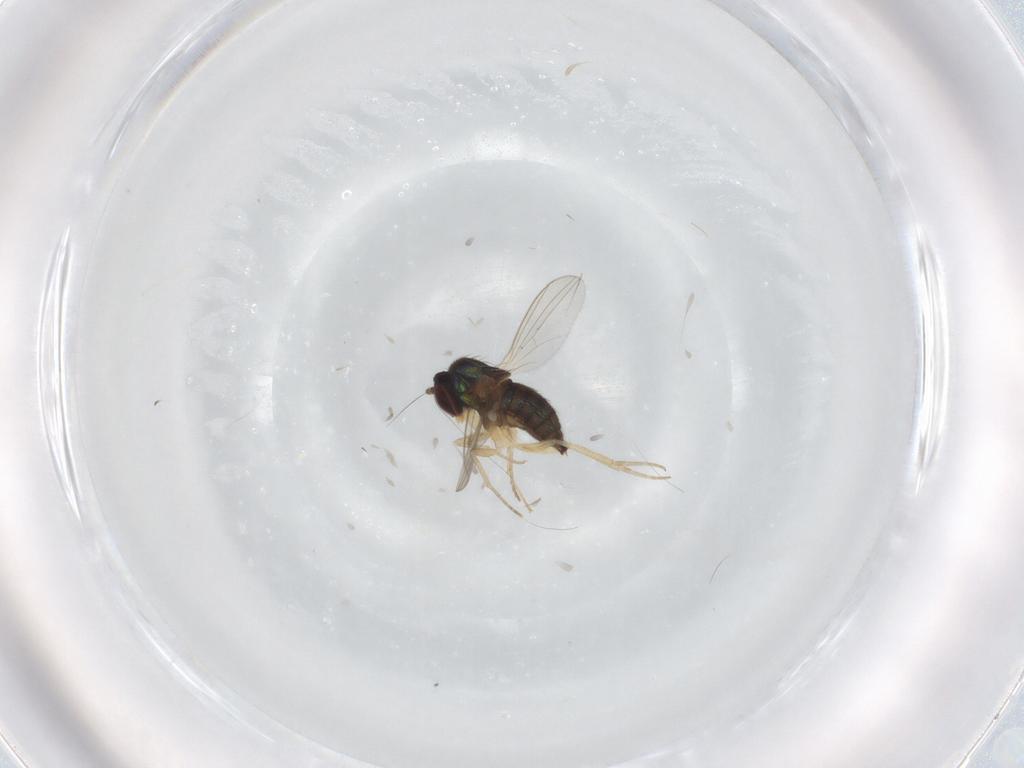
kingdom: Animalia
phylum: Arthropoda
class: Insecta
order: Diptera
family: Dolichopodidae
